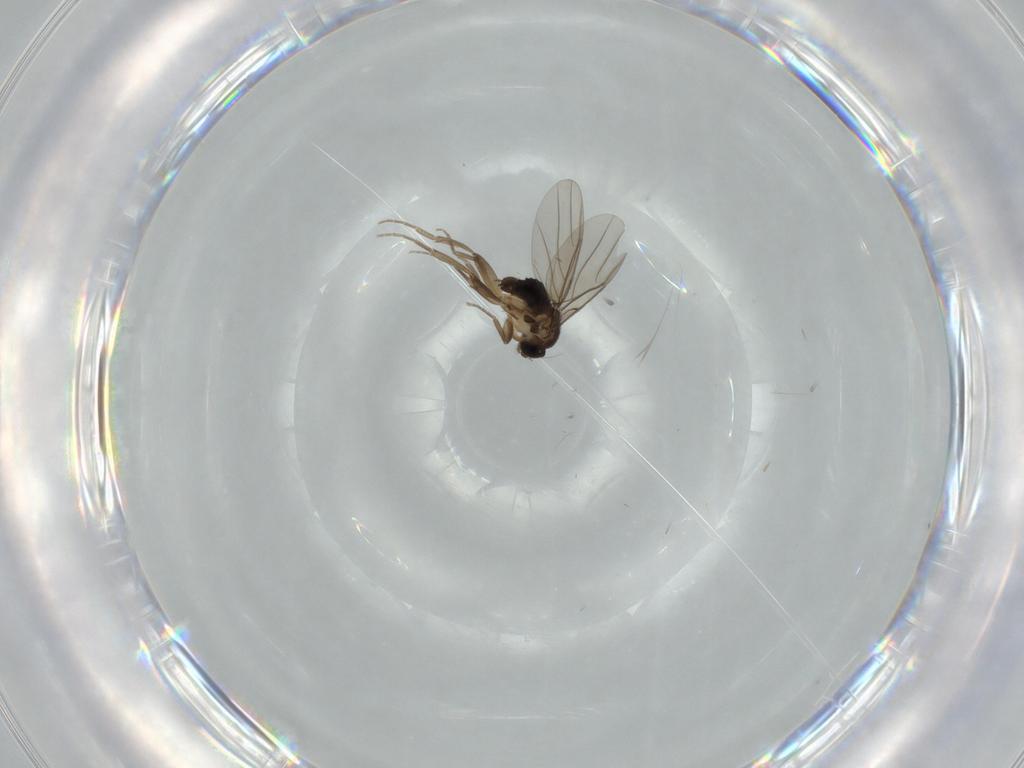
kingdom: Animalia
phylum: Arthropoda
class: Insecta
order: Diptera
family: Phoridae
